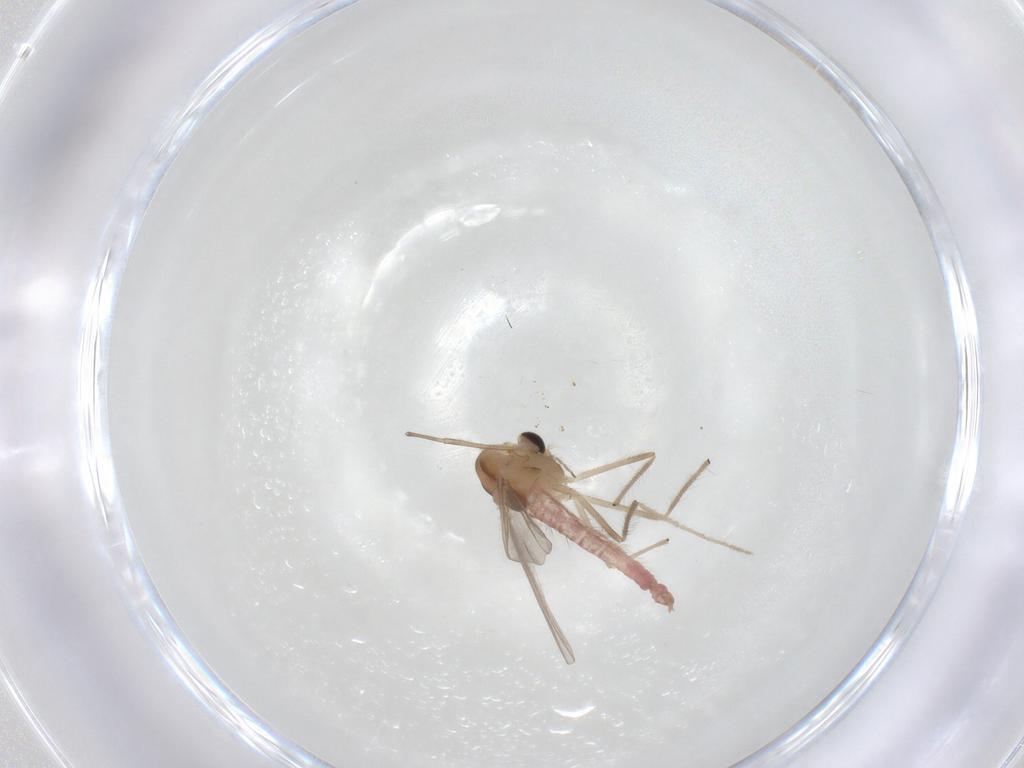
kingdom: Animalia
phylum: Arthropoda
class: Insecta
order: Diptera
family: Chironomidae
